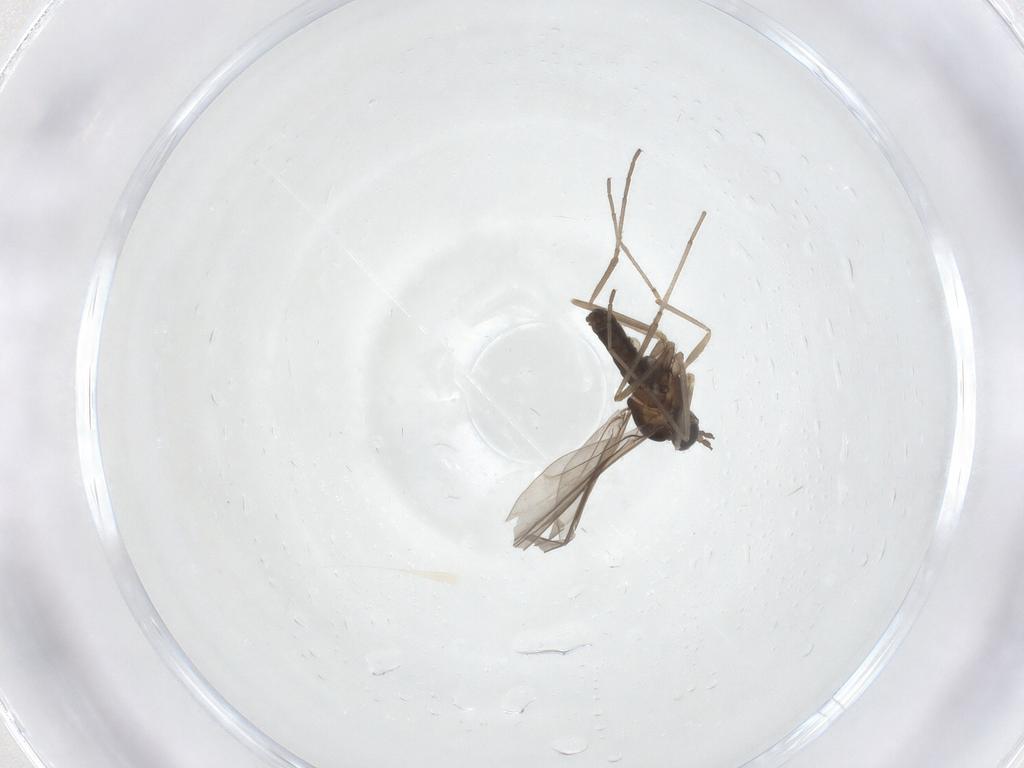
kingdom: Animalia
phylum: Arthropoda
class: Insecta
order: Diptera
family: Cecidomyiidae
